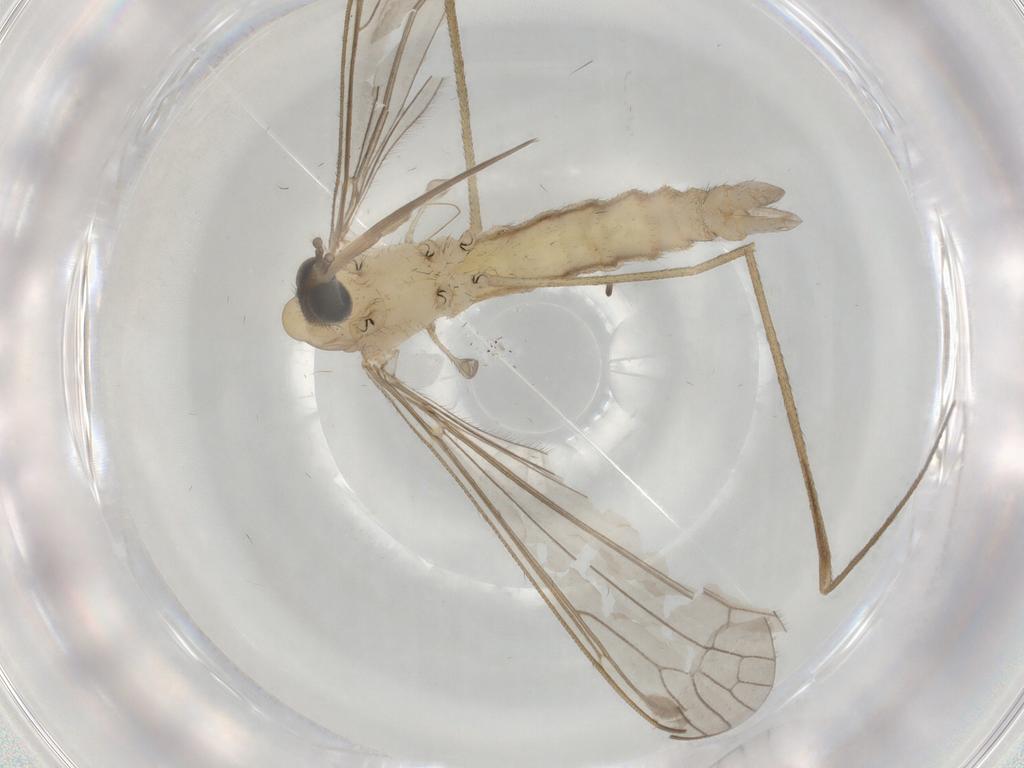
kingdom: Animalia
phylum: Arthropoda
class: Insecta
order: Diptera
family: Limoniidae
